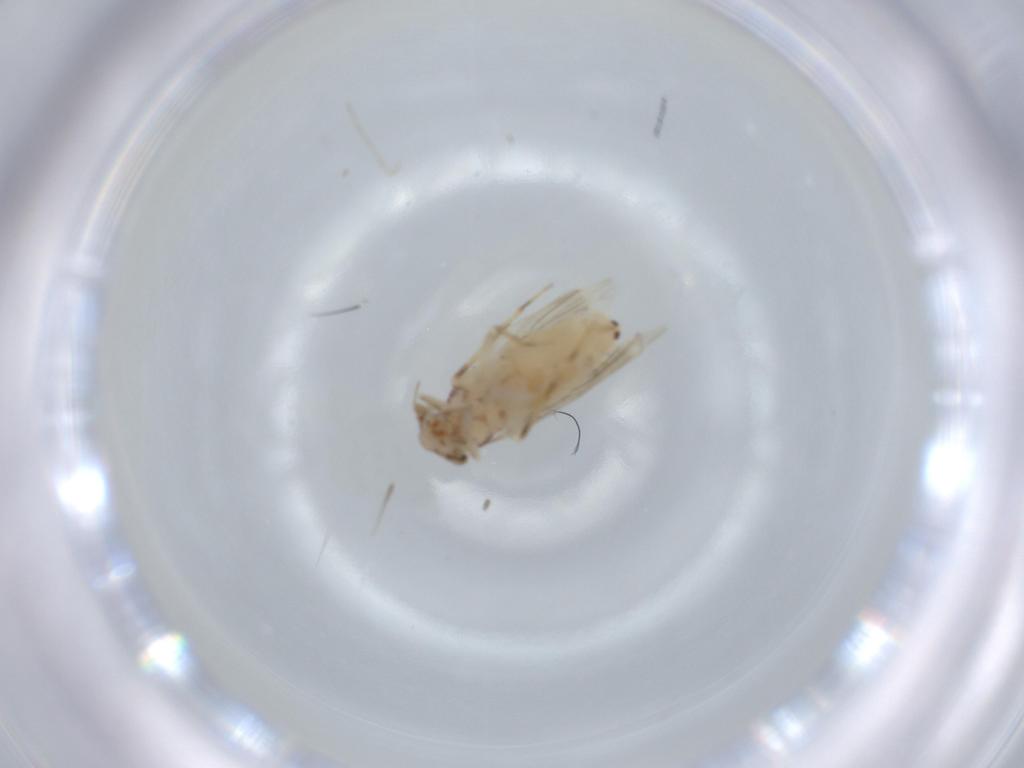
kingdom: Animalia
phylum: Arthropoda
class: Insecta
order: Psocodea
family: Lepidopsocidae
